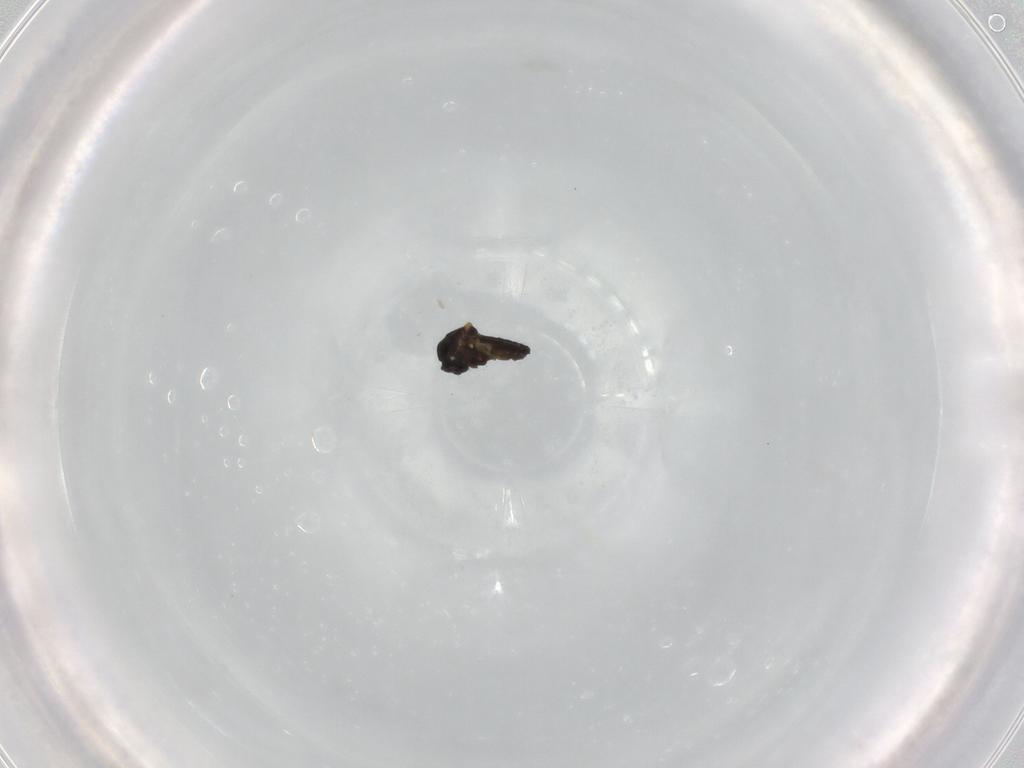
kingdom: Animalia
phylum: Arthropoda
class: Insecta
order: Diptera
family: Ceratopogonidae
